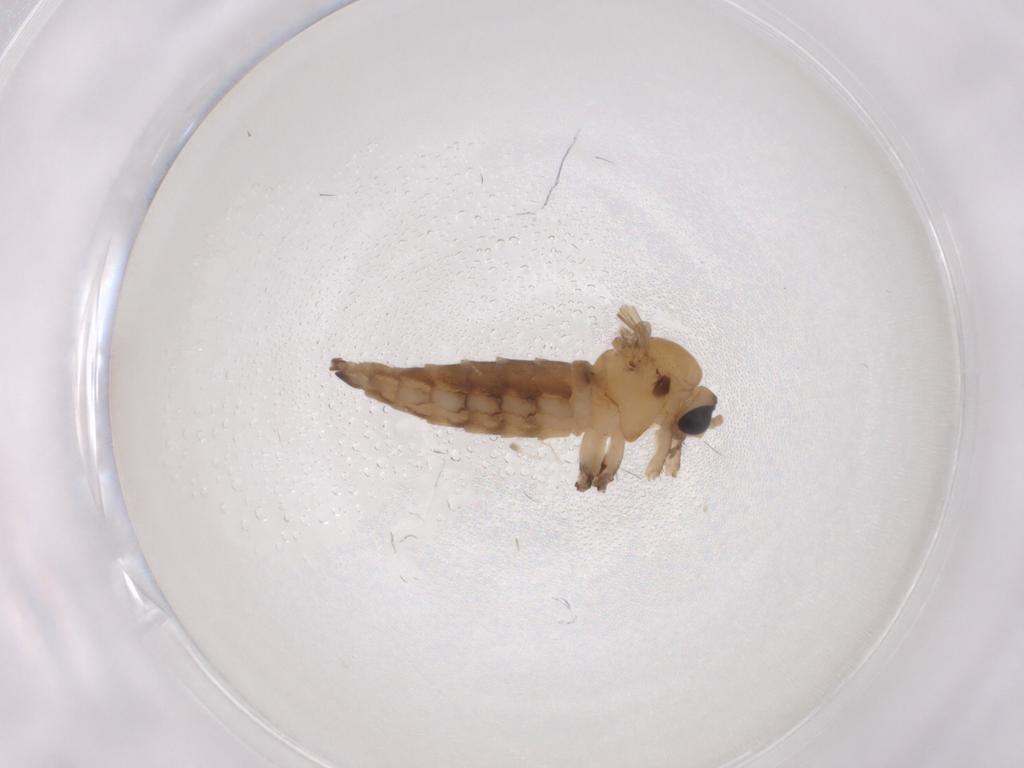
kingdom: Animalia
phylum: Arthropoda
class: Insecta
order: Diptera
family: Sciaridae
